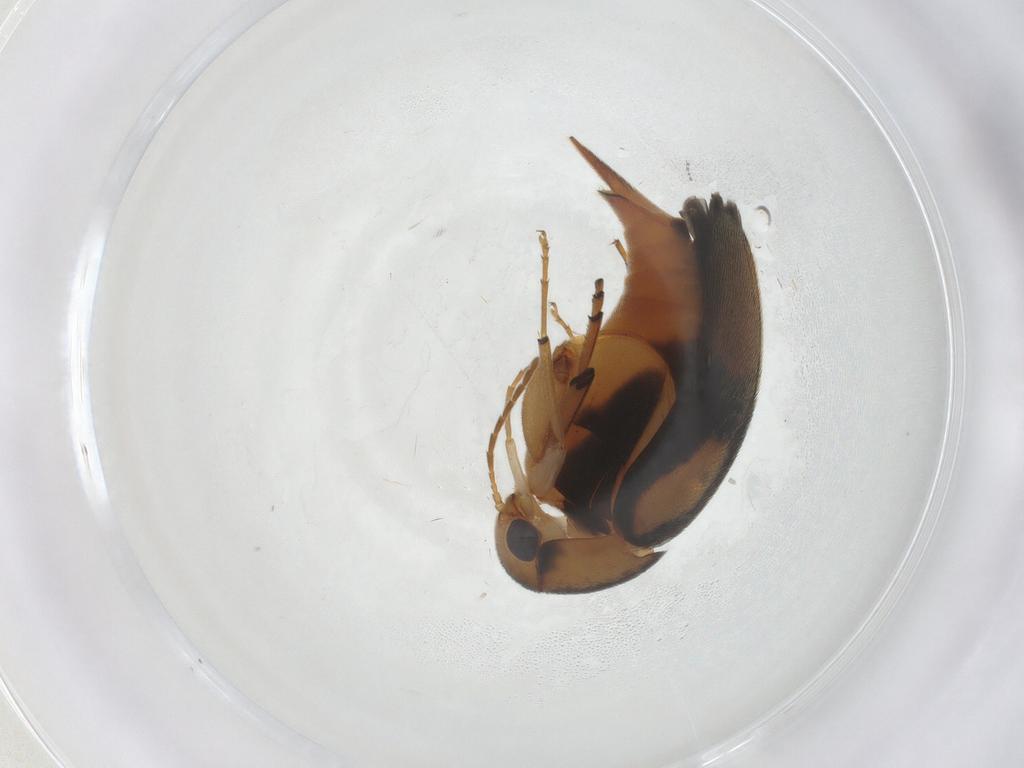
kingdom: Animalia
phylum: Arthropoda
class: Insecta
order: Coleoptera
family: Mordellidae
